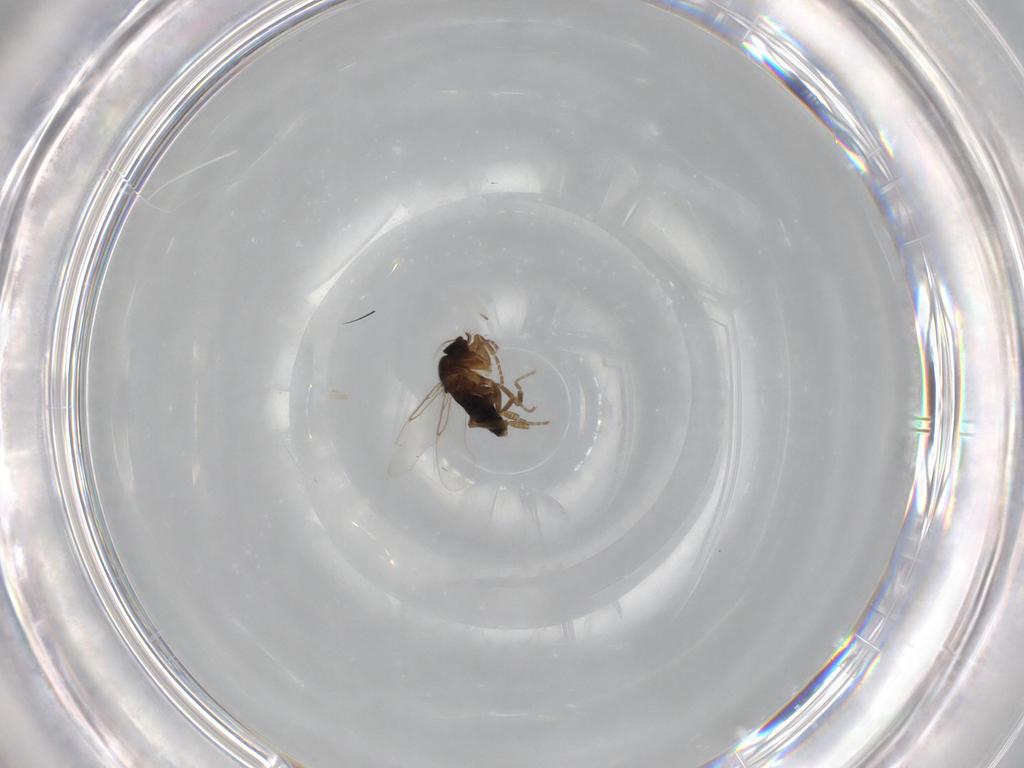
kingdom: Animalia
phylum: Arthropoda
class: Insecta
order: Diptera
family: Phoridae
